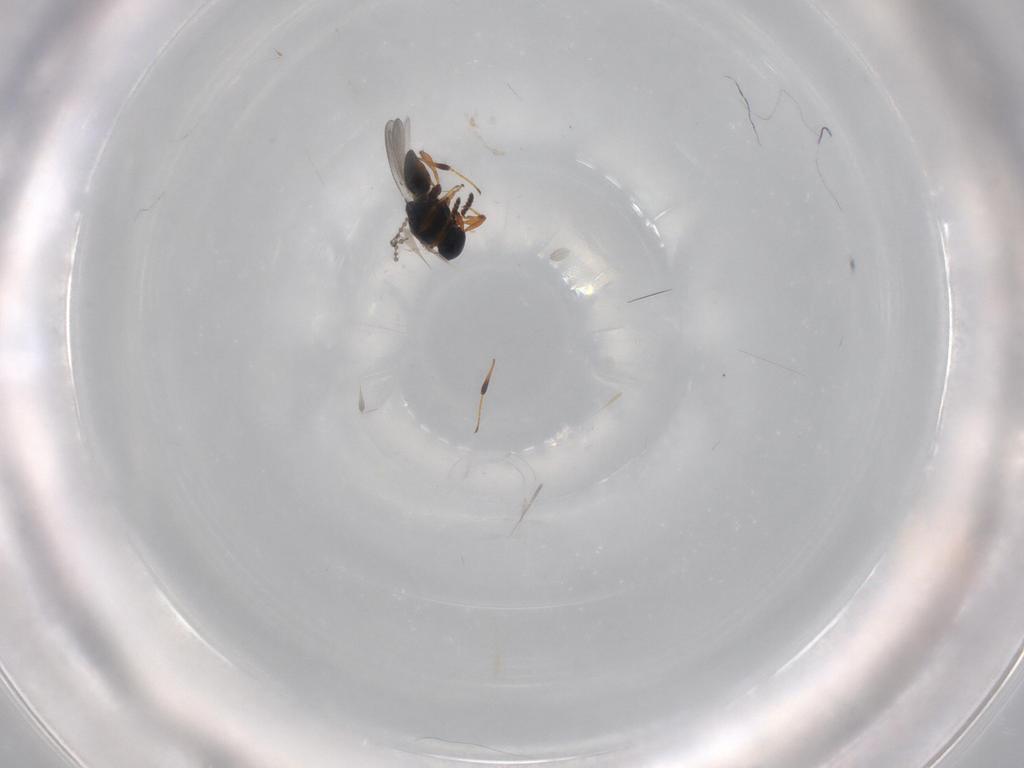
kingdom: Animalia
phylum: Arthropoda
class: Insecta
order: Hymenoptera
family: Platygastridae
